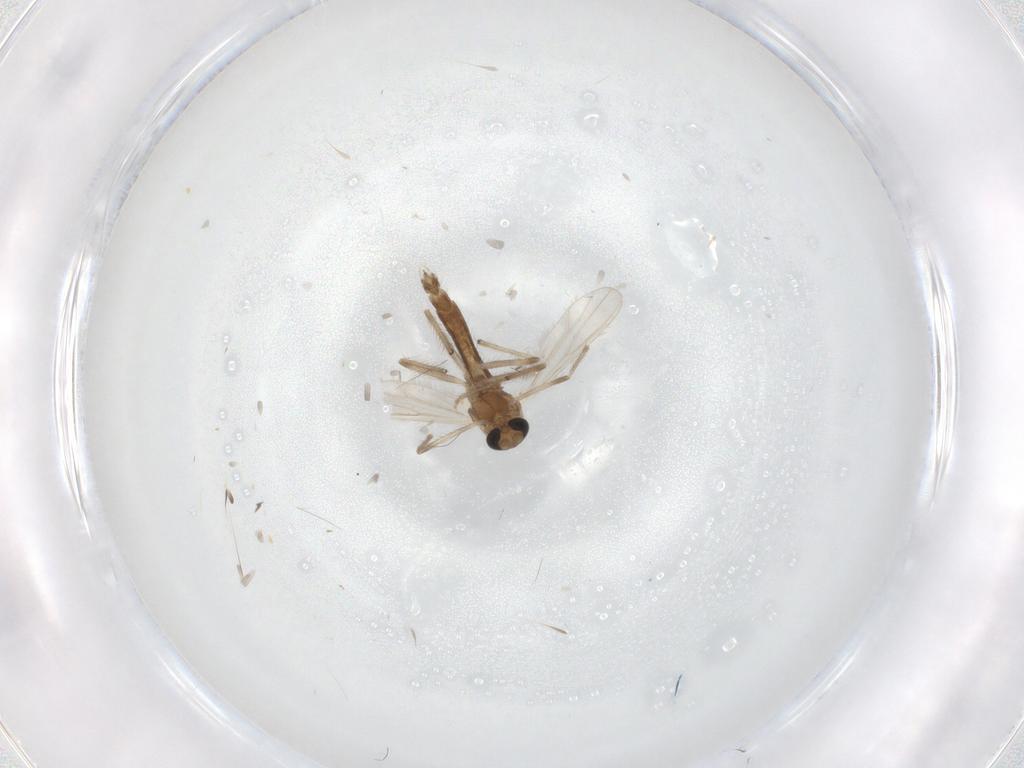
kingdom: Animalia
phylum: Arthropoda
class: Insecta
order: Diptera
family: Chironomidae
